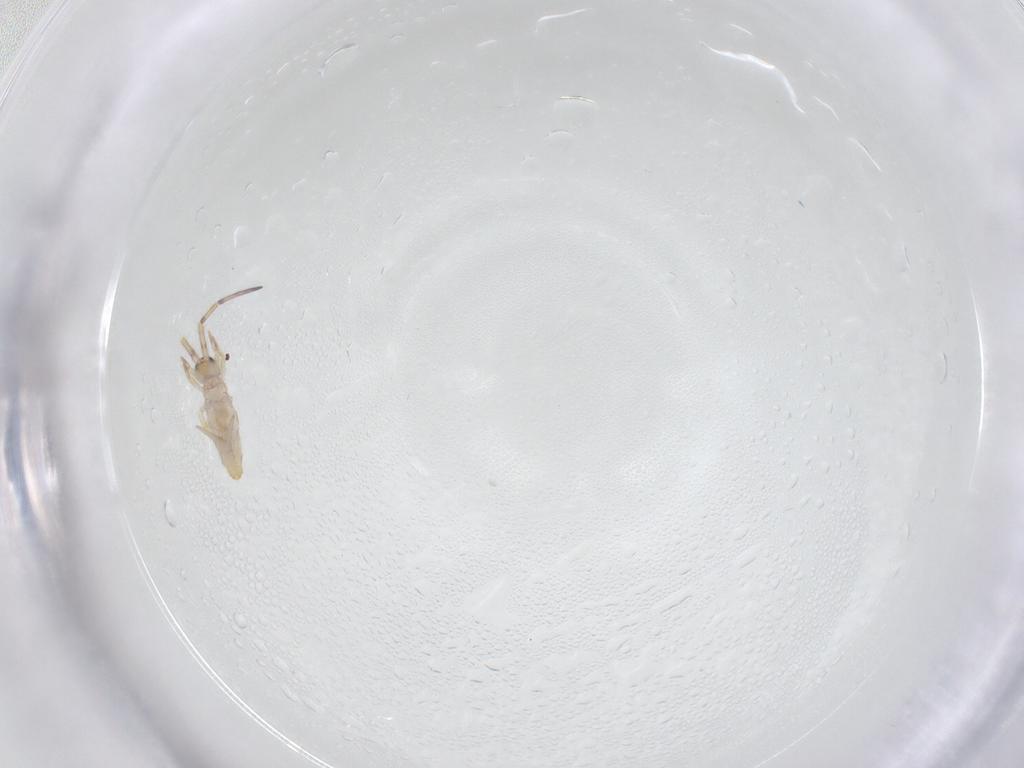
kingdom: Animalia
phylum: Arthropoda
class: Collembola
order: Entomobryomorpha
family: Entomobryidae
